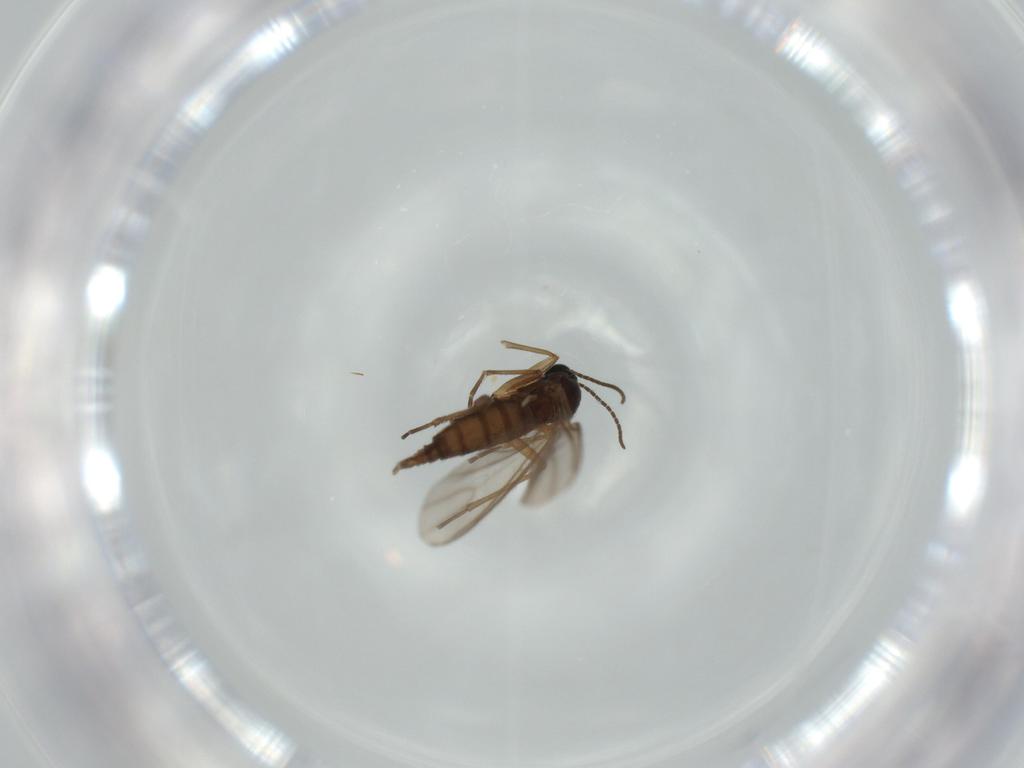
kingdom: Animalia
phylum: Arthropoda
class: Insecta
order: Diptera
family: Sciaridae
